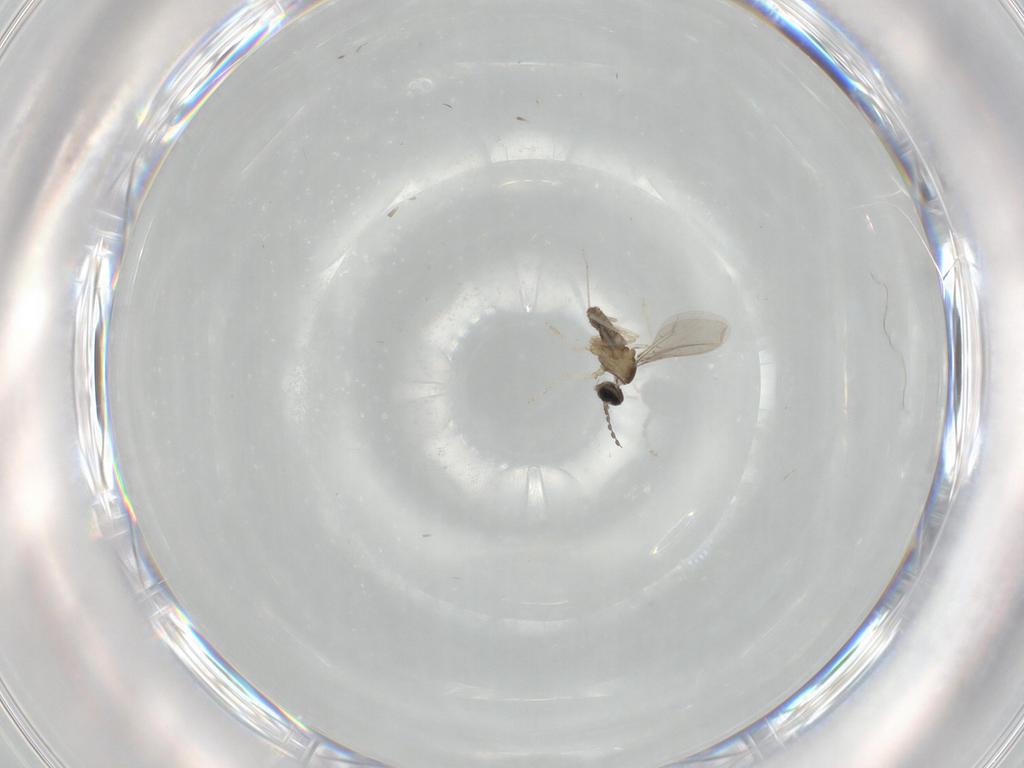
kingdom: Animalia
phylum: Arthropoda
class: Insecta
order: Diptera
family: Cecidomyiidae
